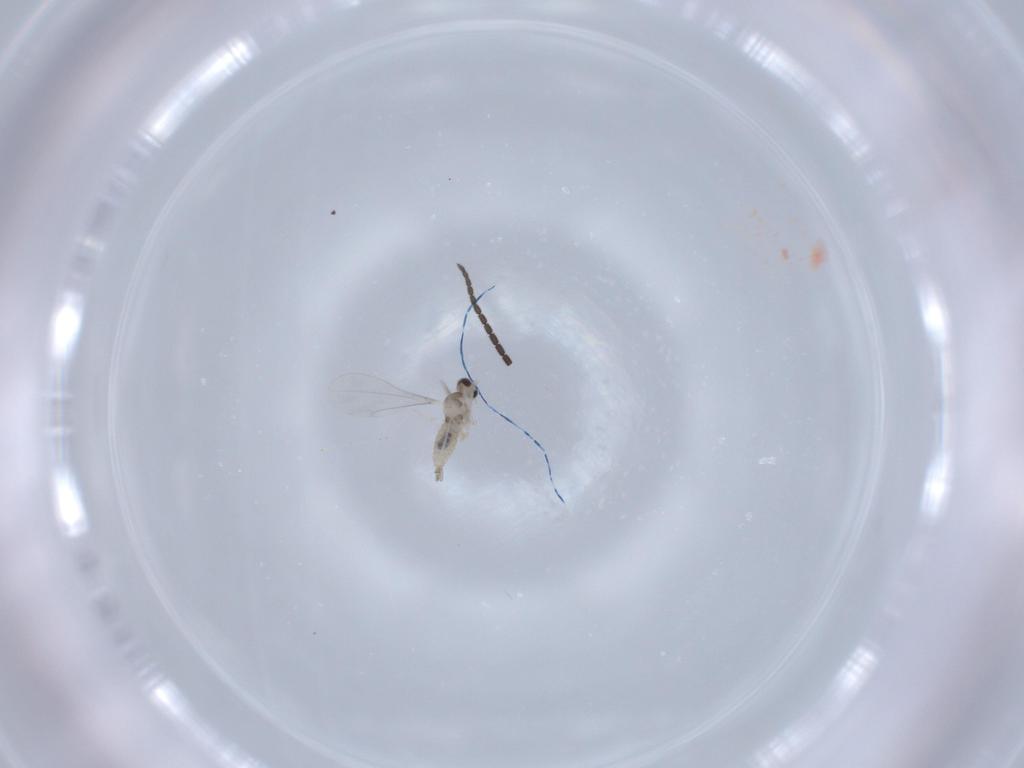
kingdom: Animalia
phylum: Arthropoda
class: Insecta
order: Diptera
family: Sciaridae
